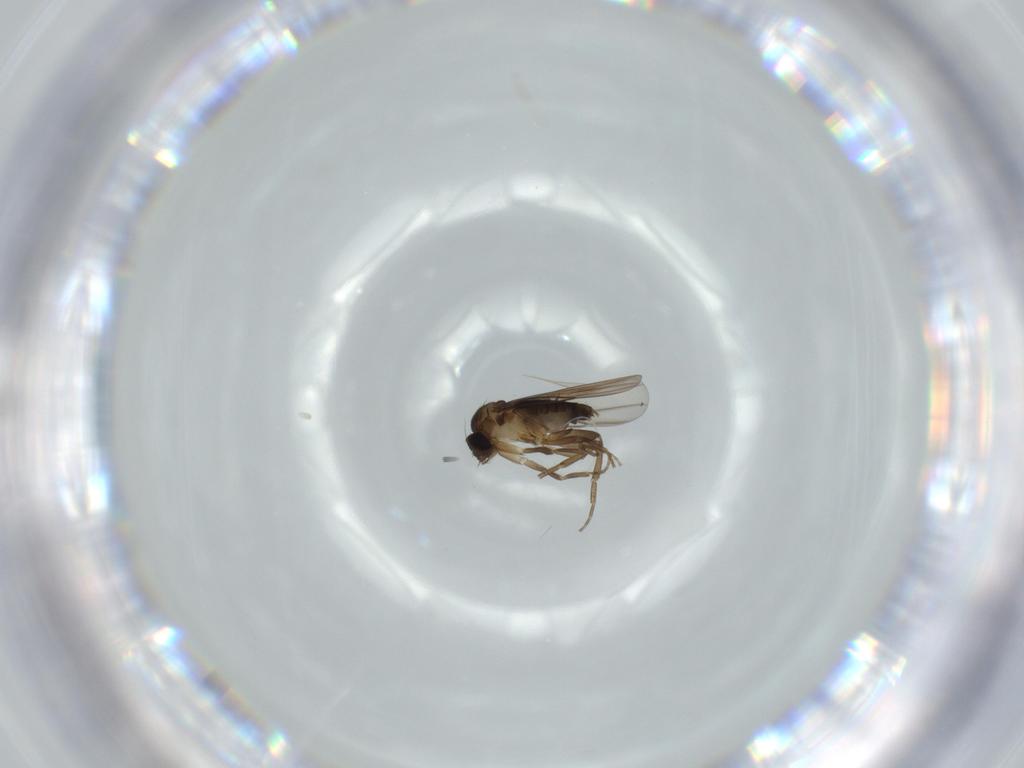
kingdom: Animalia
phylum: Arthropoda
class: Insecta
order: Diptera
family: Phoridae
